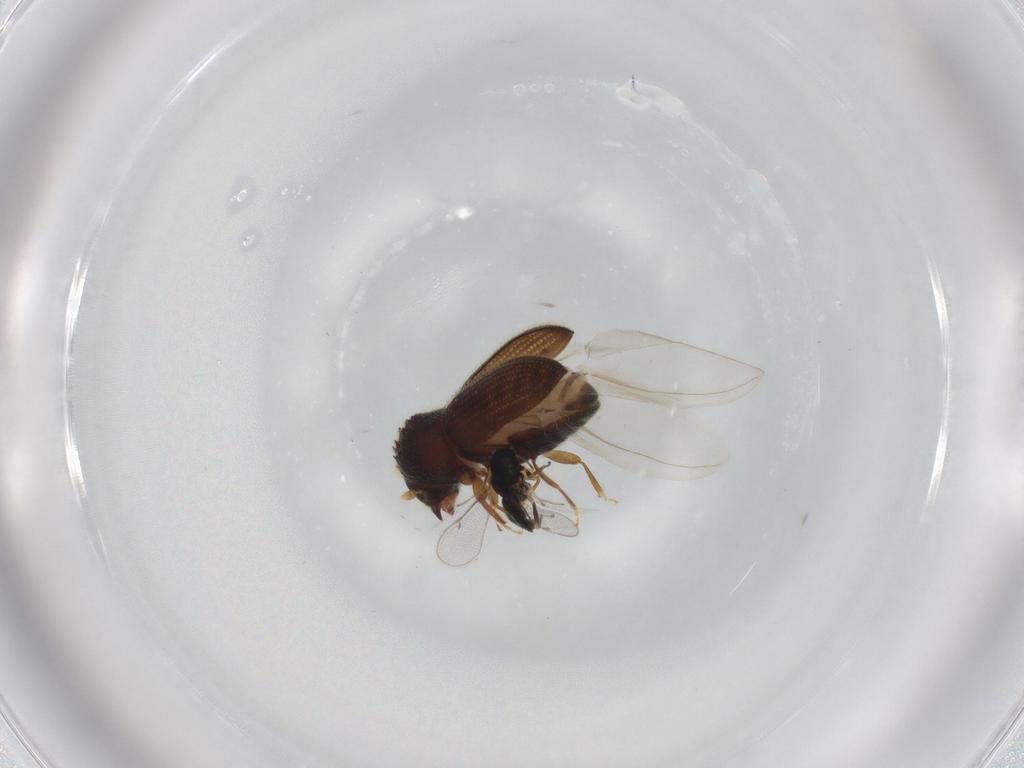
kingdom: Animalia
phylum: Arthropoda
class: Insecta
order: Coleoptera
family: Curculionidae
